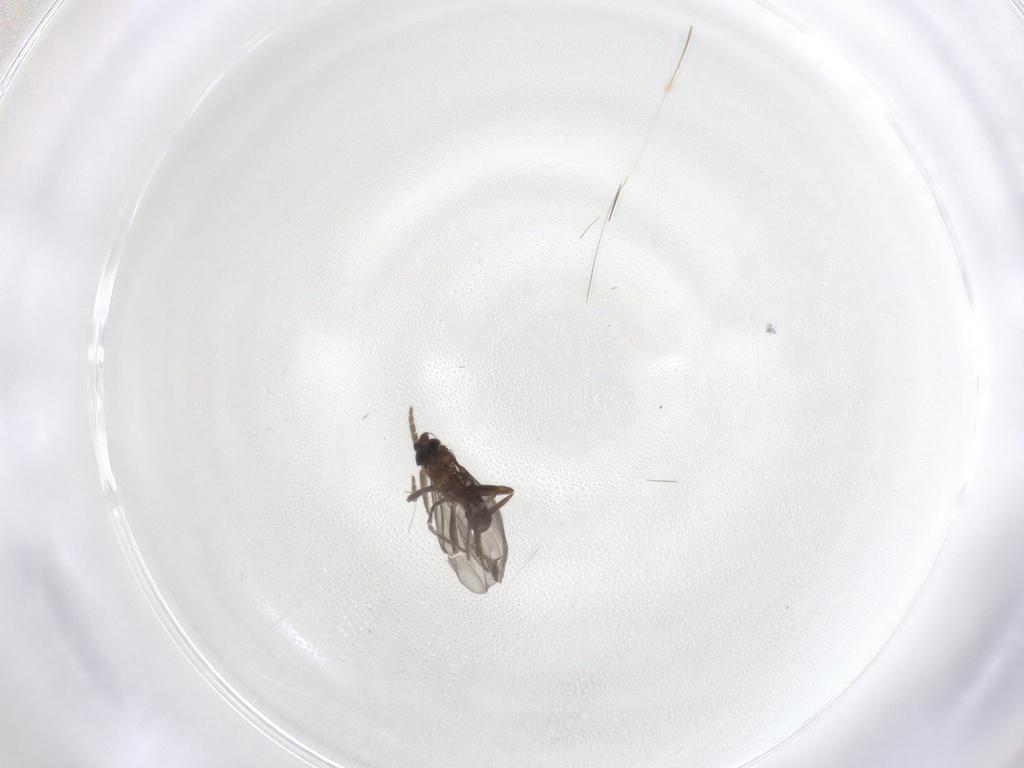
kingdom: Animalia
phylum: Arthropoda
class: Insecta
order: Diptera
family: Phoridae
